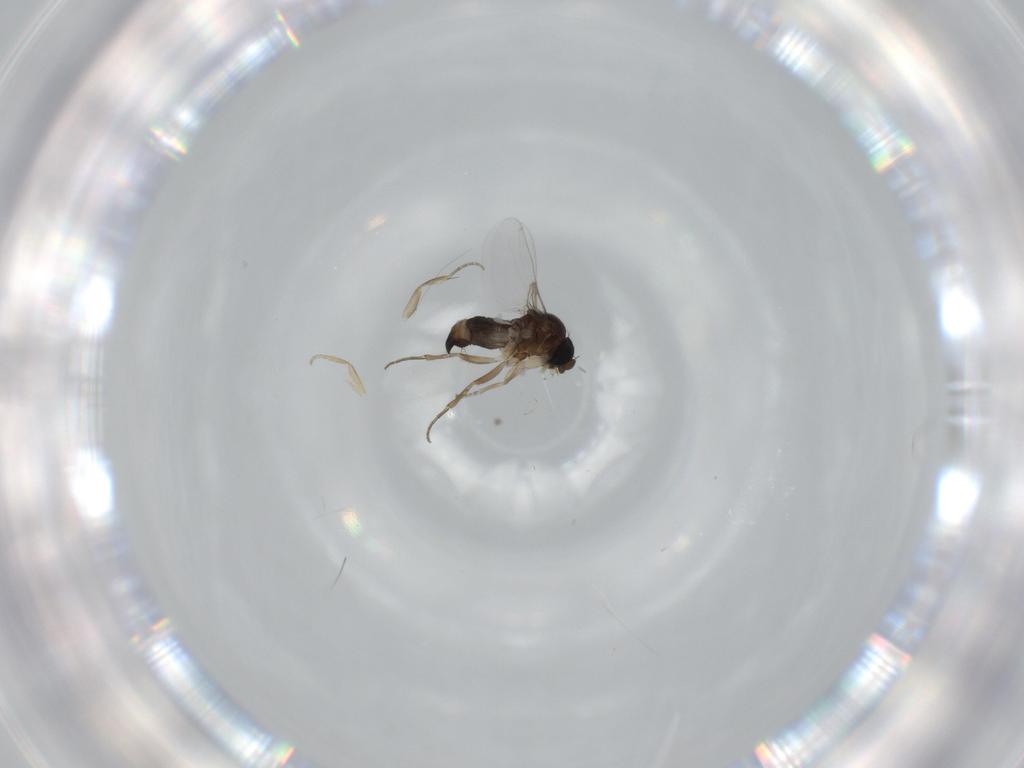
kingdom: Animalia
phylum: Arthropoda
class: Insecta
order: Diptera
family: Phoridae
